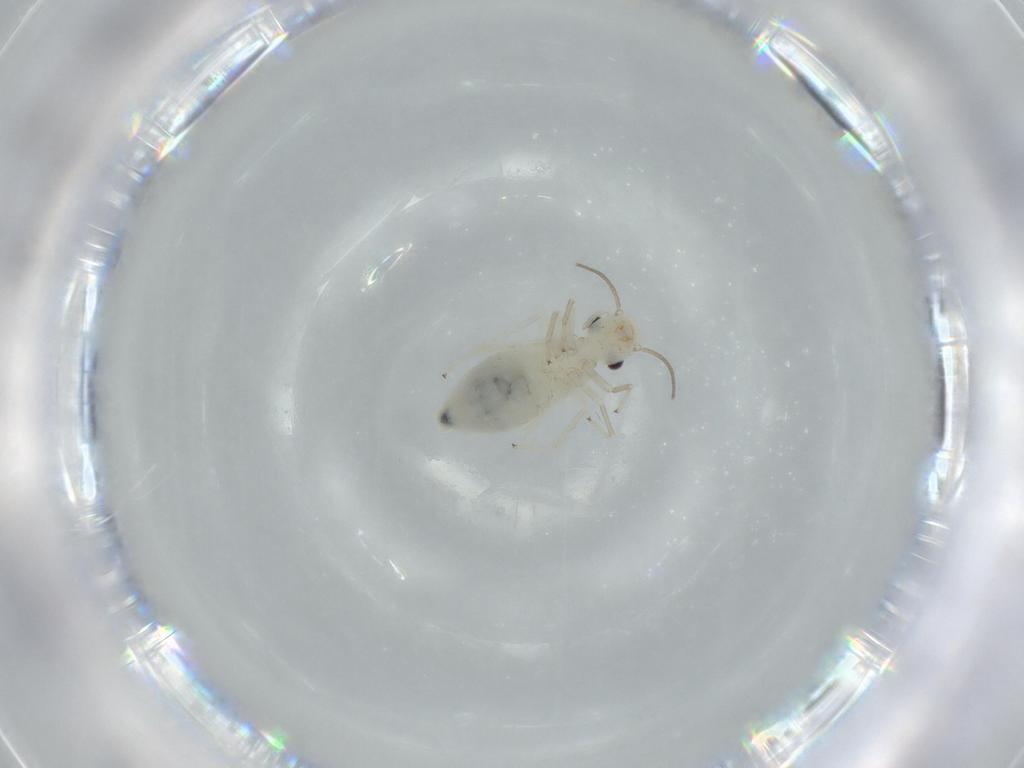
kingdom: Animalia
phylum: Arthropoda
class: Insecta
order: Psocodea
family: Caeciliusidae
